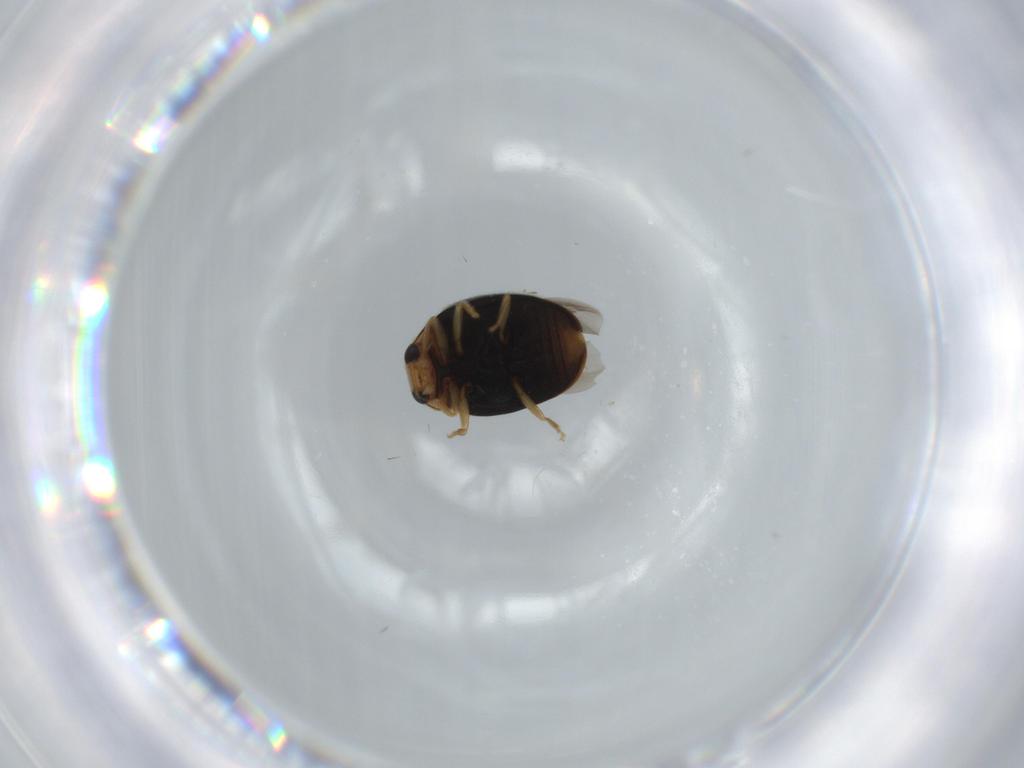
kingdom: Animalia
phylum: Arthropoda
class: Insecta
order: Coleoptera
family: Coccinellidae
